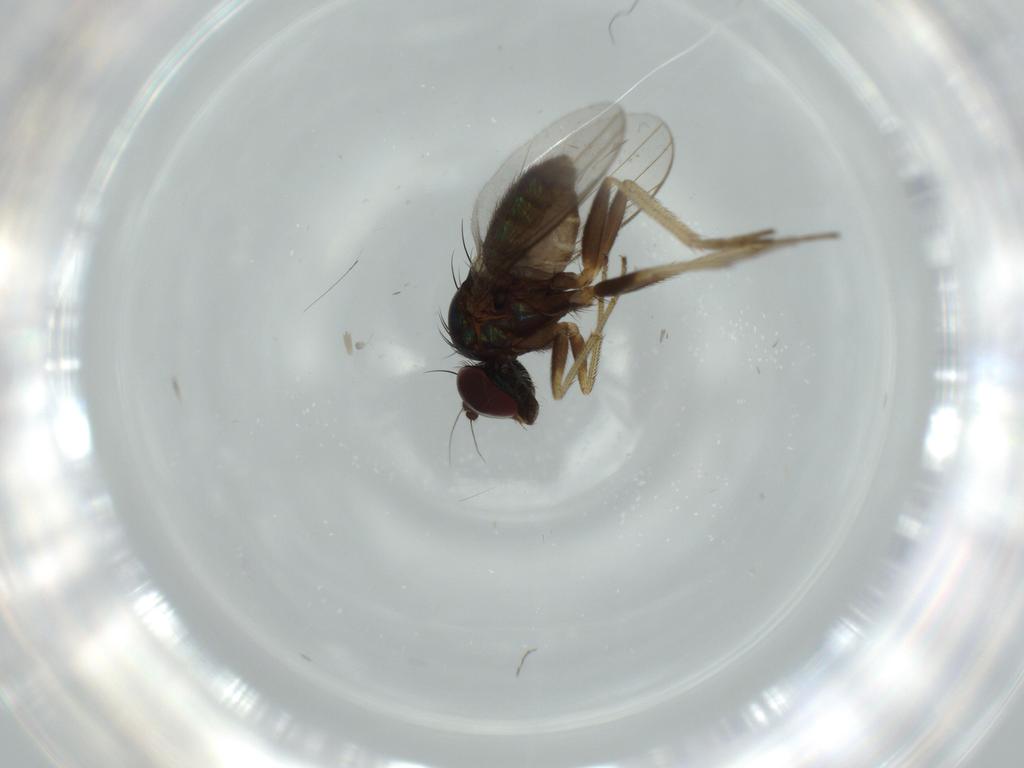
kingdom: Animalia
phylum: Arthropoda
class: Insecta
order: Diptera
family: Dolichopodidae
